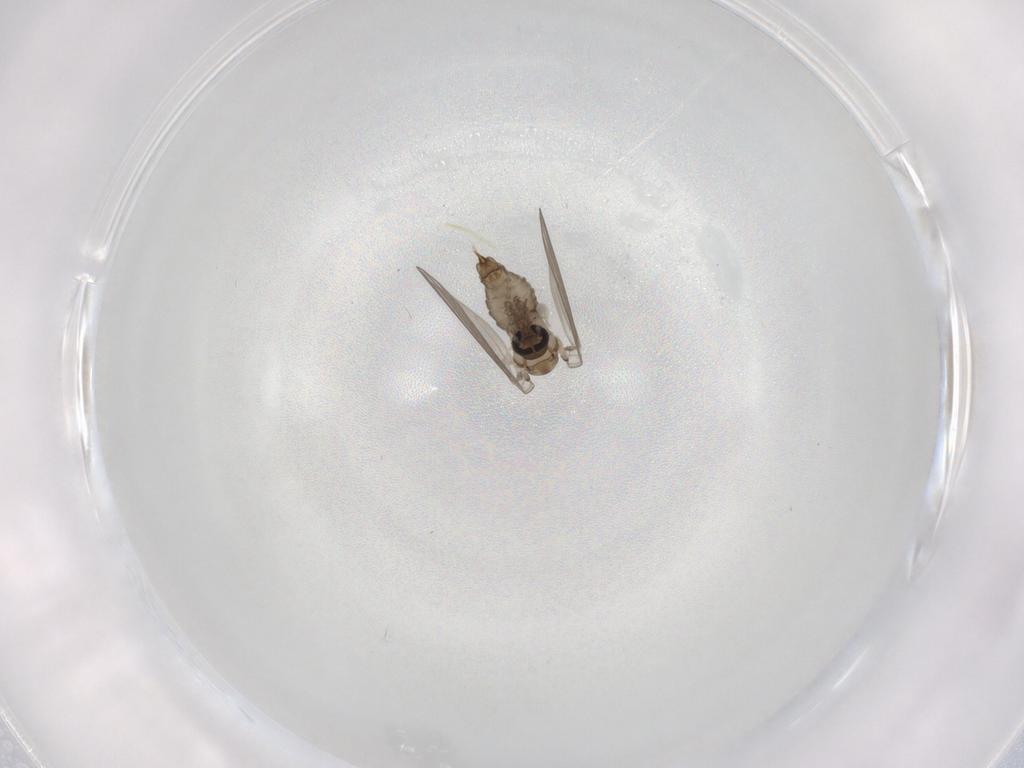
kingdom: Animalia
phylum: Arthropoda
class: Insecta
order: Diptera
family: Psychodidae
